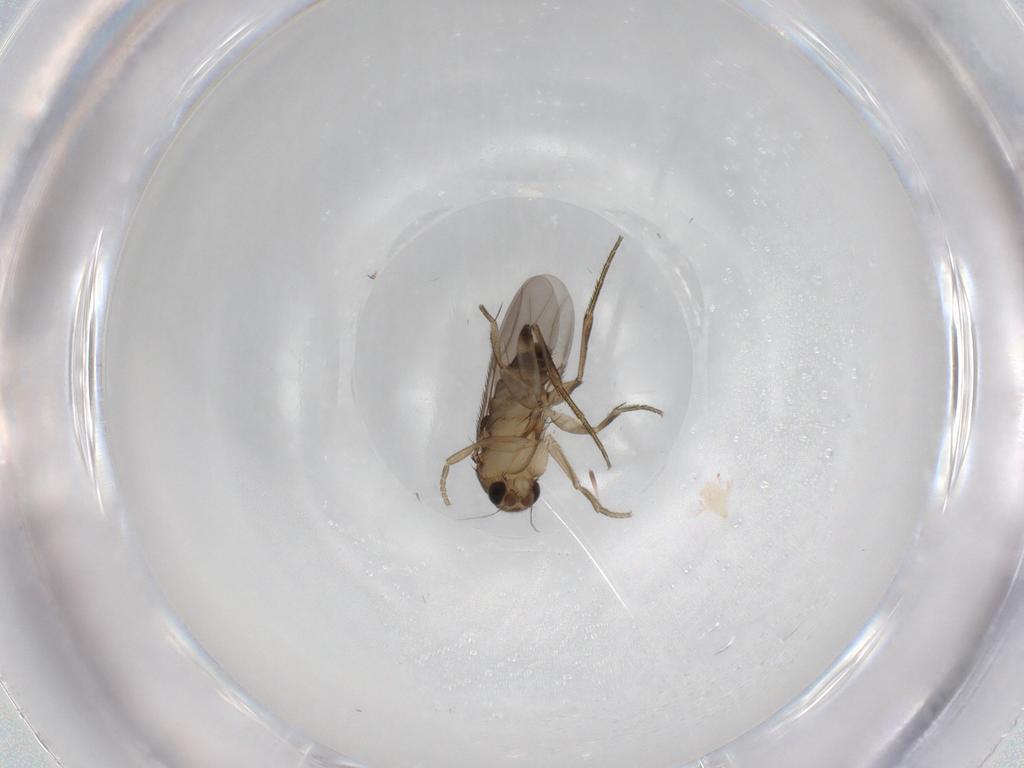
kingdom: Animalia
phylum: Arthropoda
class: Insecta
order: Diptera
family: Phoridae
